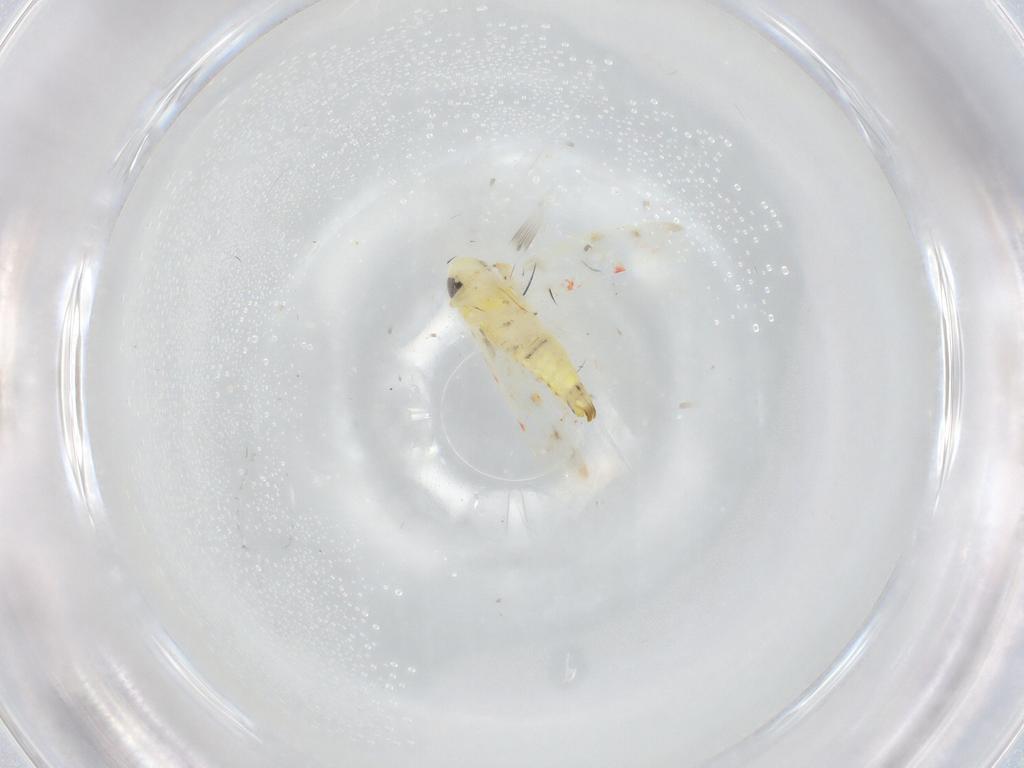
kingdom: Animalia
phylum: Arthropoda
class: Insecta
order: Hemiptera
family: Cicadellidae
